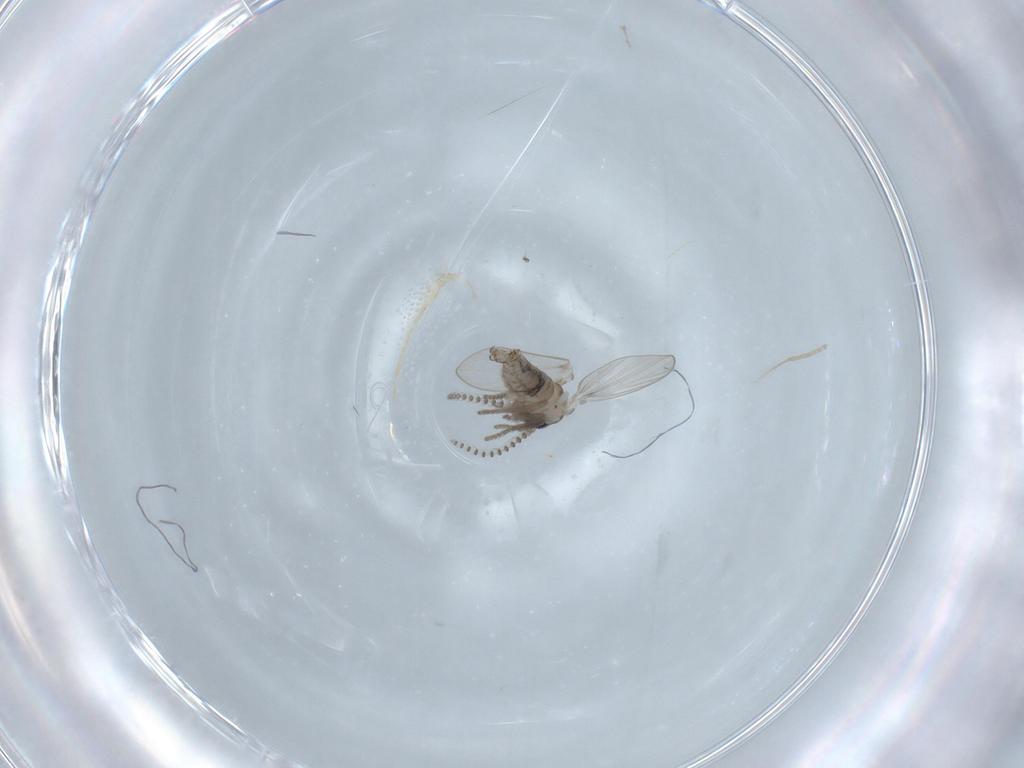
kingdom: Animalia
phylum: Arthropoda
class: Insecta
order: Diptera
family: Psychodidae
